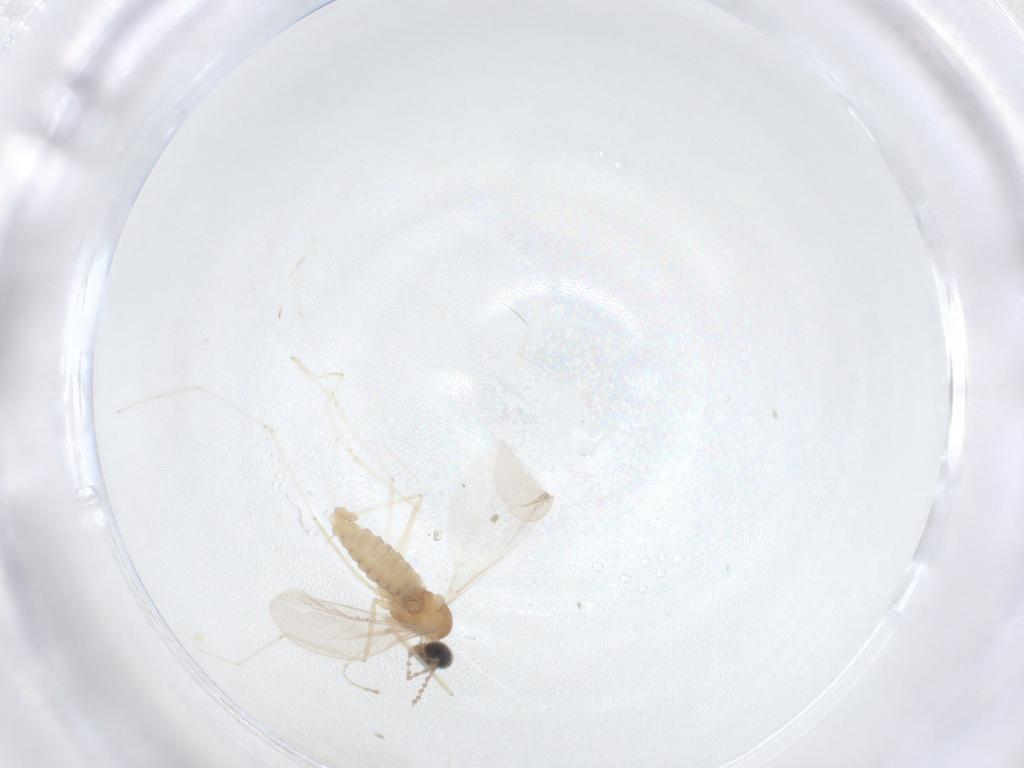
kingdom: Animalia
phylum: Arthropoda
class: Insecta
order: Diptera
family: Cecidomyiidae
